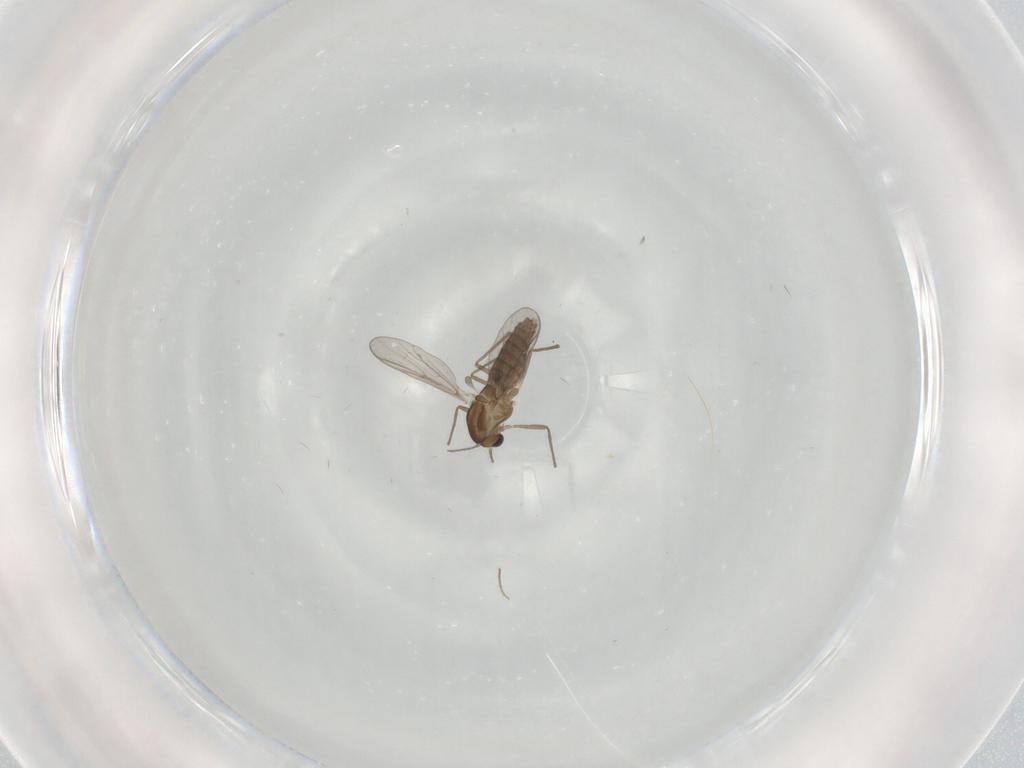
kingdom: Animalia
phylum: Arthropoda
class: Insecta
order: Diptera
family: Chironomidae
